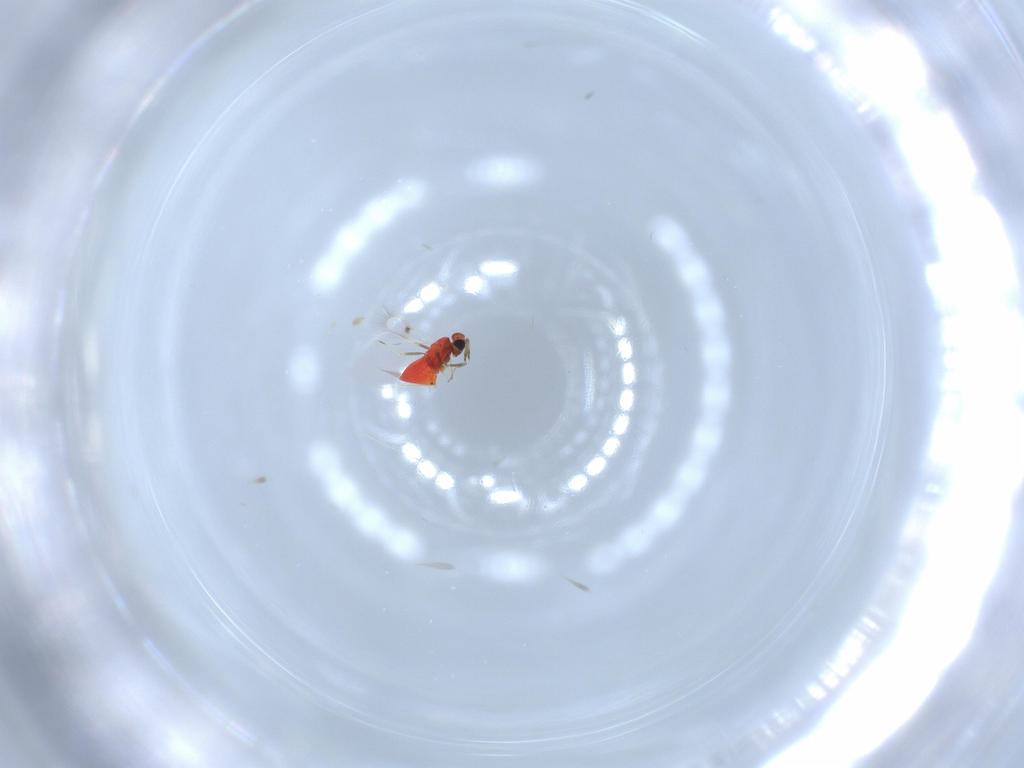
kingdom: Animalia
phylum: Arthropoda
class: Insecta
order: Hymenoptera
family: Trichogrammatidae
